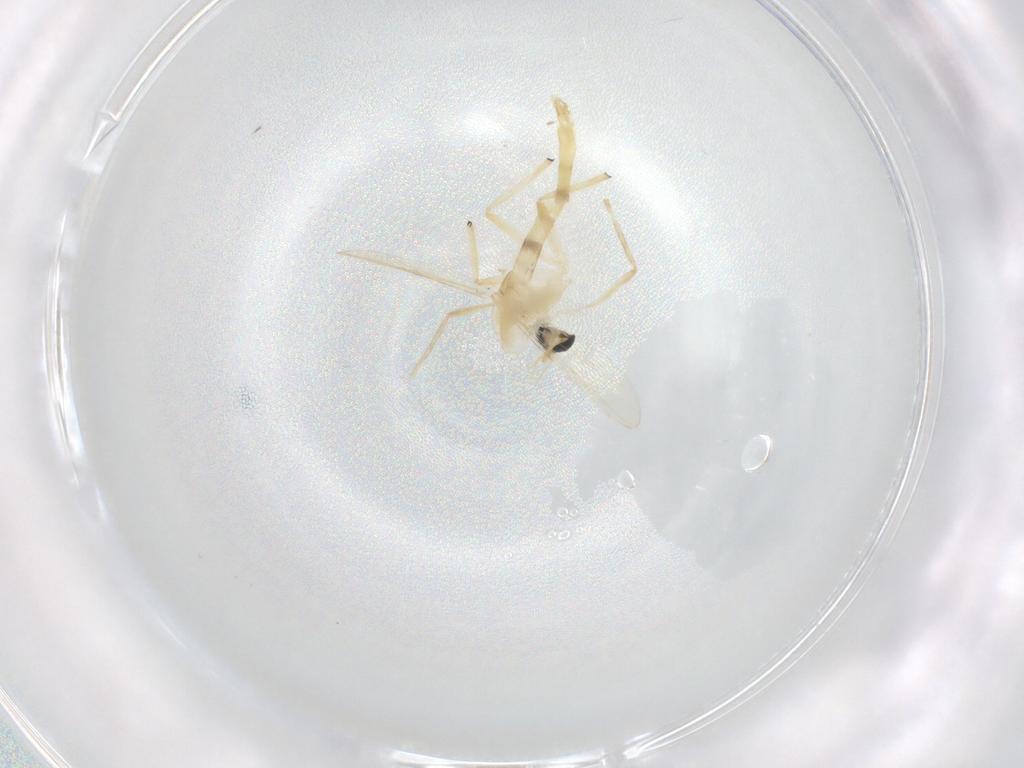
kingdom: Animalia
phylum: Arthropoda
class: Insecta
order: Diptera
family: Chironomidae
